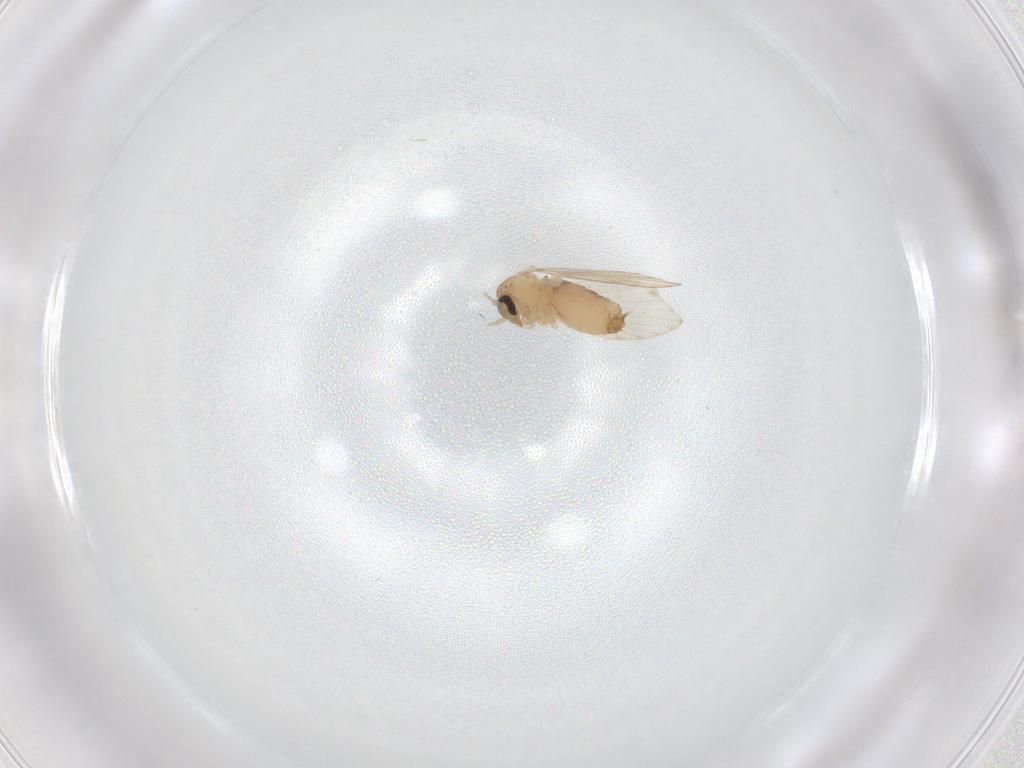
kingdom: Animalia
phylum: Arthropoda
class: Insecta
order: Diptera
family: Psychodidae
